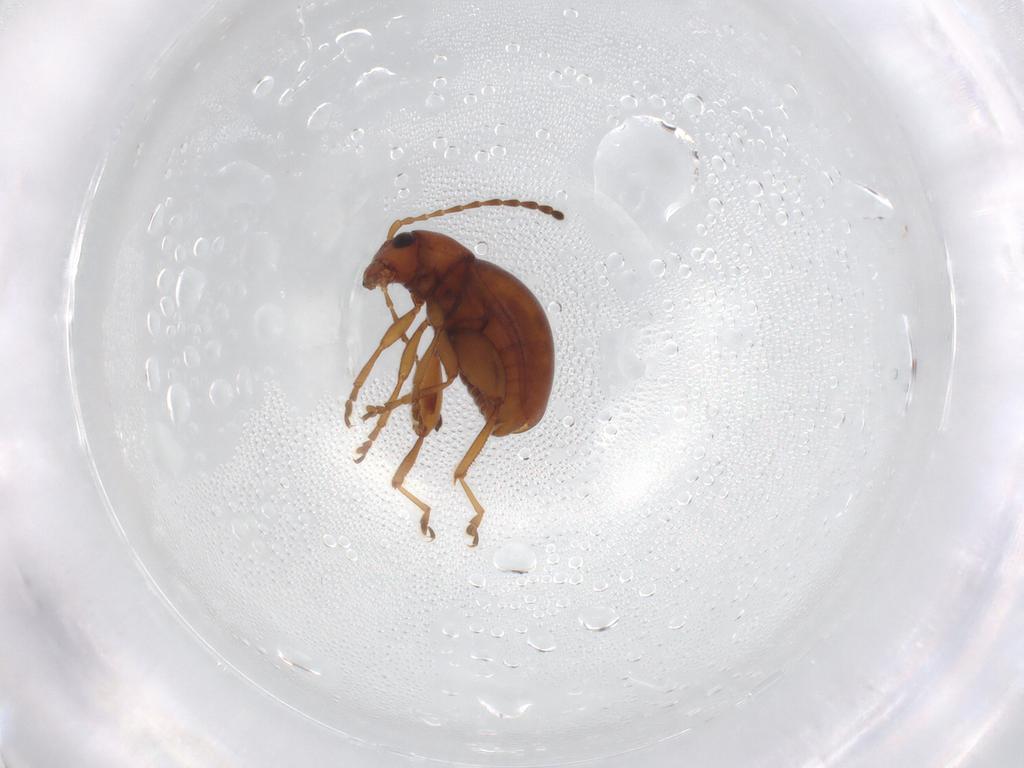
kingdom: Animalia
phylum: Arthropoda
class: Insecta
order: Coleoptera
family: Chrysomelidae
